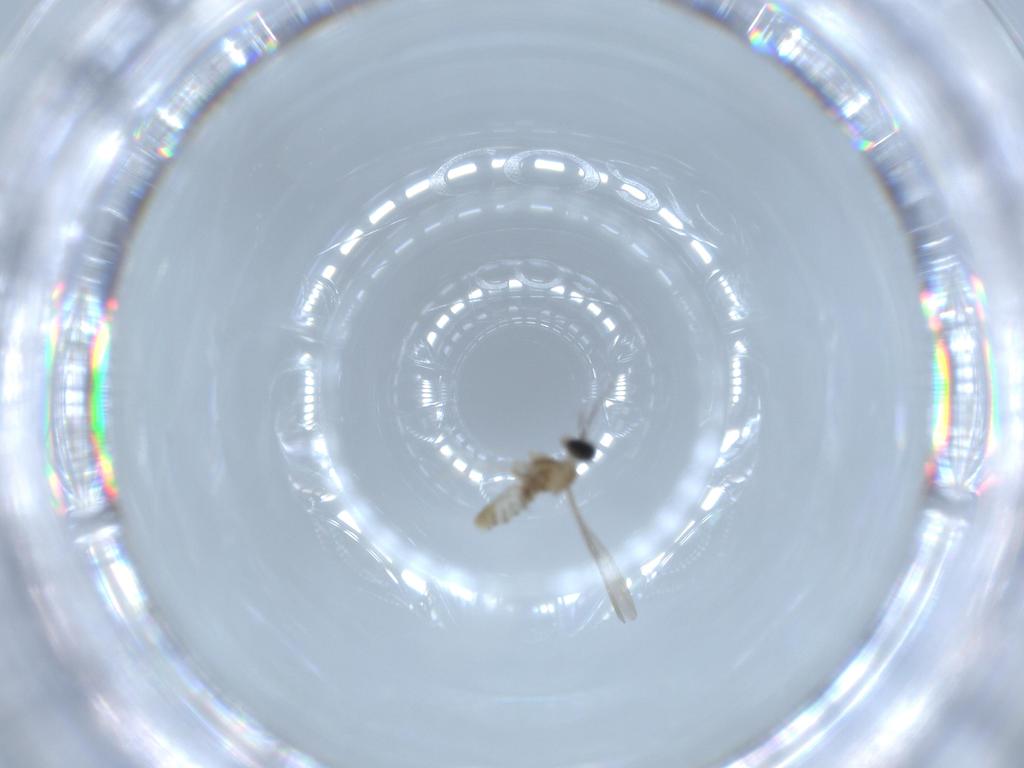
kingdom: Animalia
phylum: Arthropoda
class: Insecta
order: Diptera
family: Cecidomyiidae
